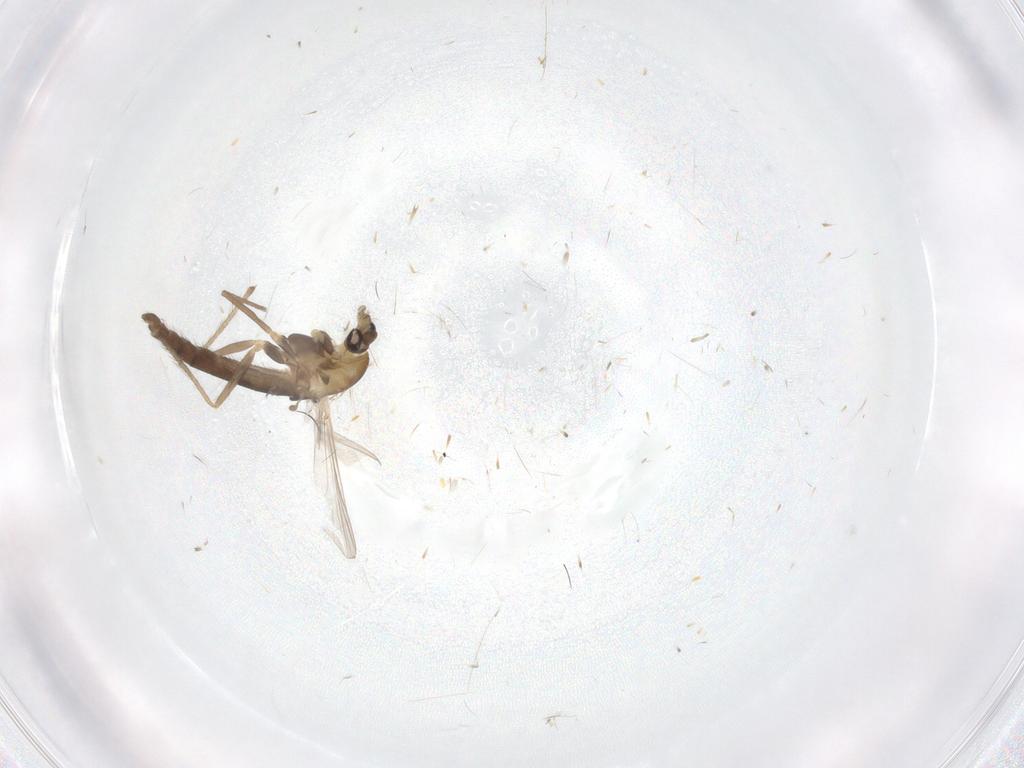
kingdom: Animalia
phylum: Arthropoda
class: Insecta
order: Diptera
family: Chironomidae
